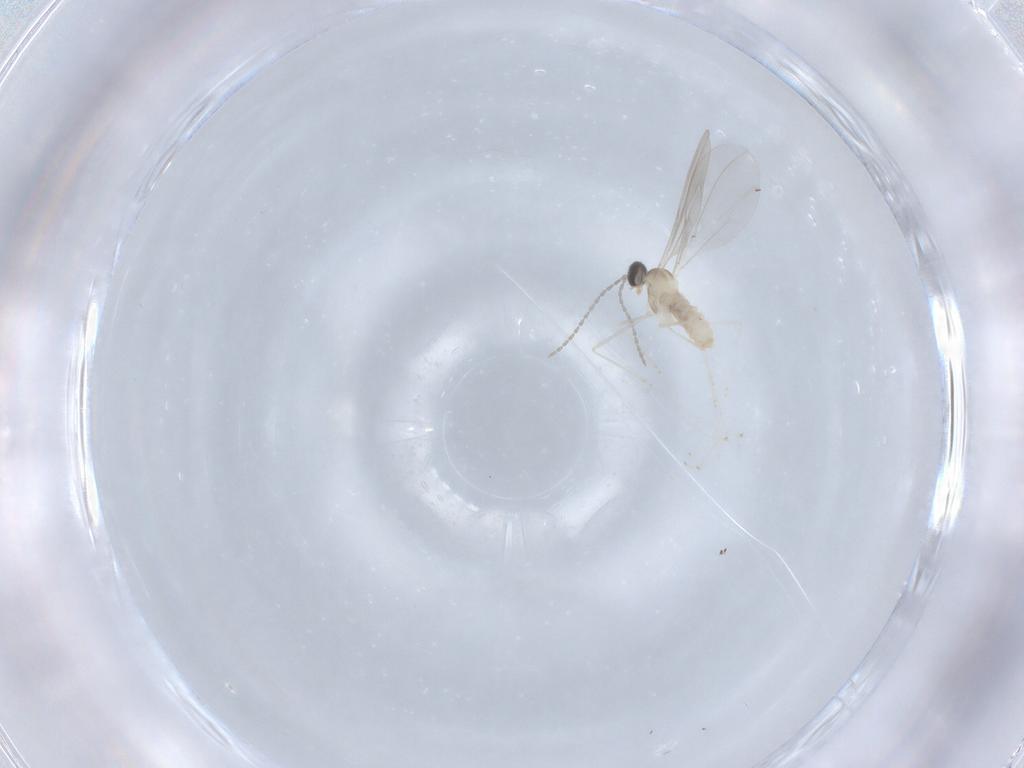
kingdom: Animalia
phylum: Arthropoda
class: Insecta
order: Diptera
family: Cecidomyiidae
